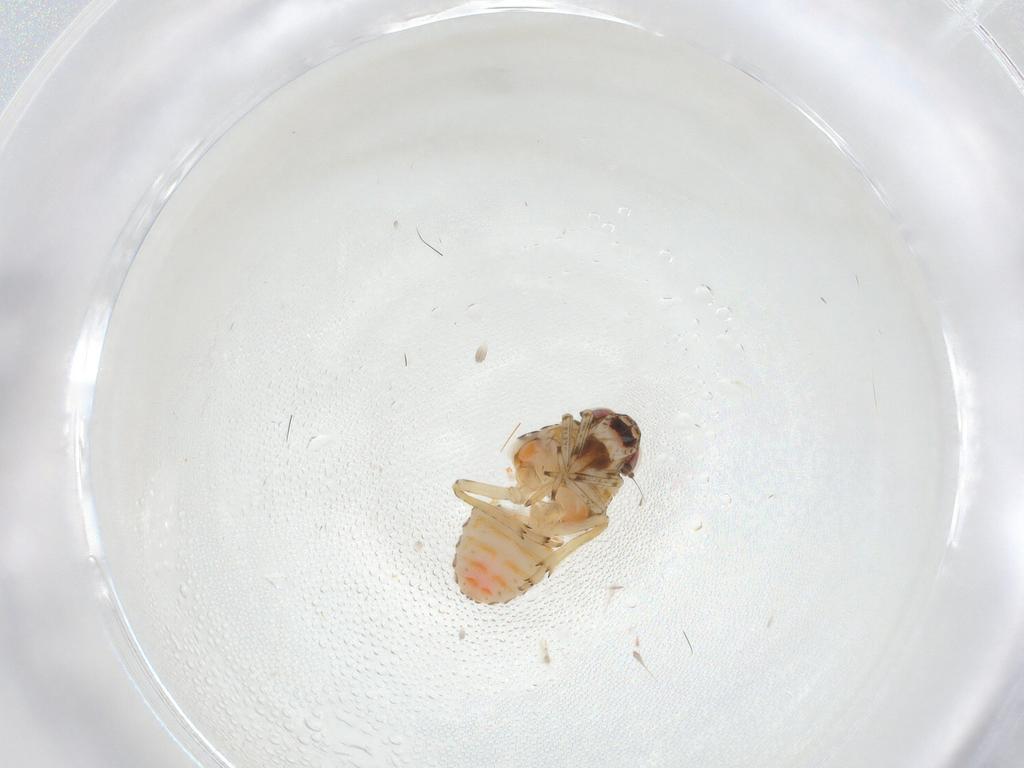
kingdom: Animalia
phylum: Arthropoda
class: Insecta
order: Hemiptera
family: Issidae
